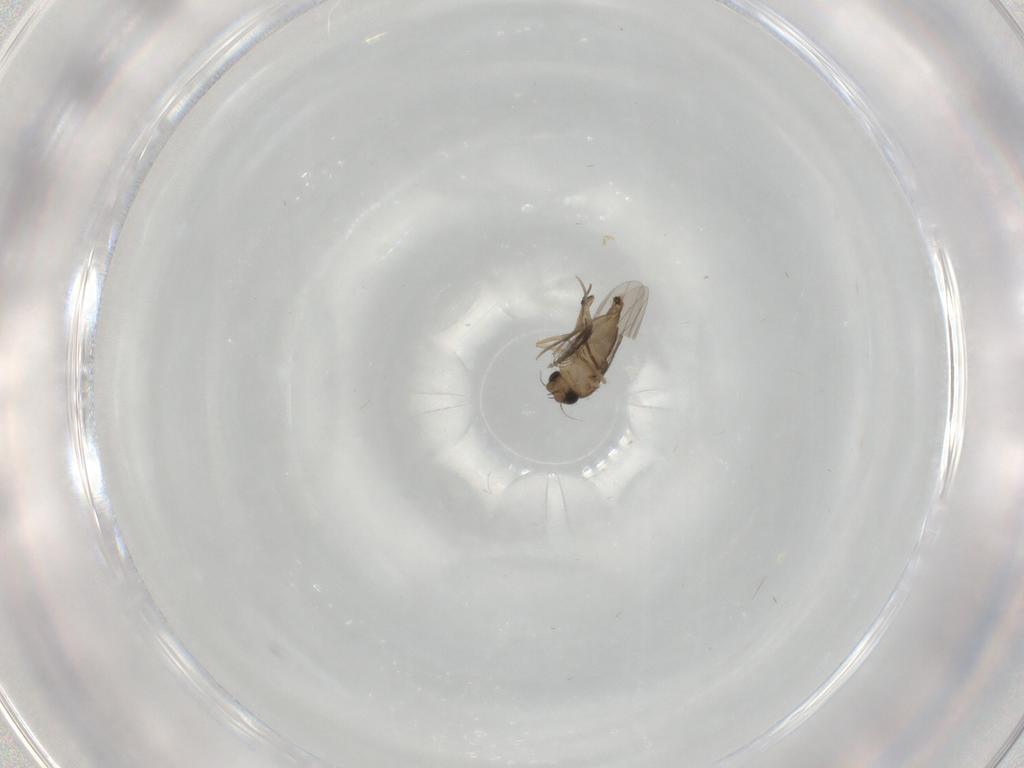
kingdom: Animalia
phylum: Arthropoda
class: Insecta
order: Diptera
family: Phoridae
